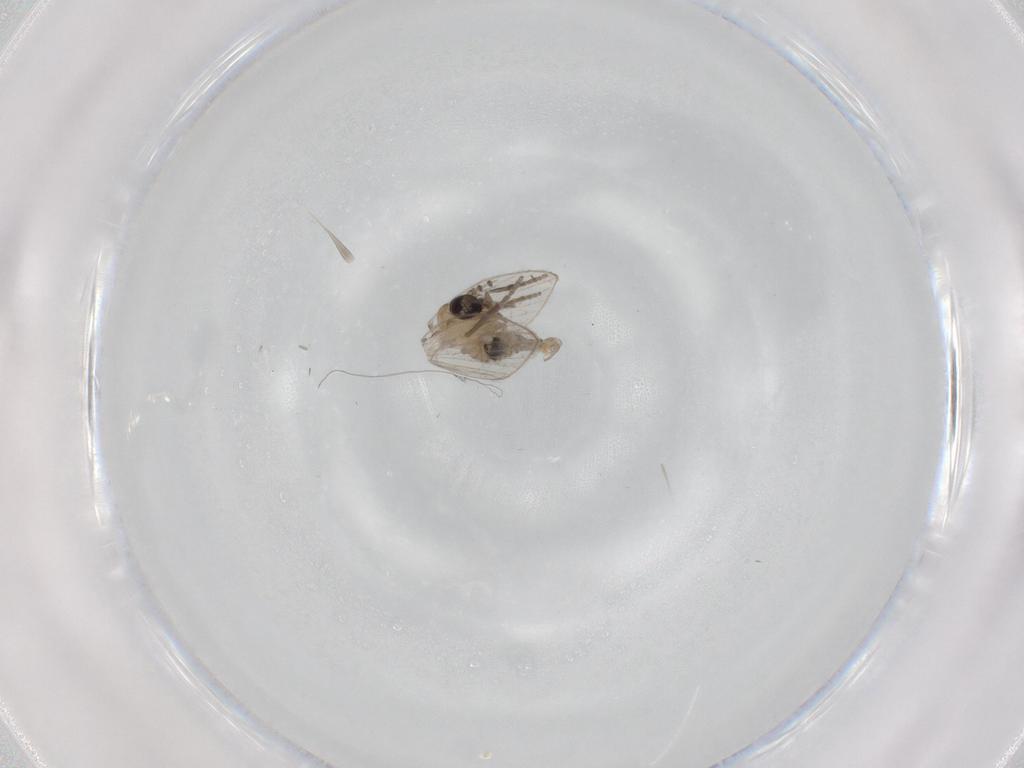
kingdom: Animalia
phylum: Arthropoda
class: Insecta
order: Diptera
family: Psychodidae
